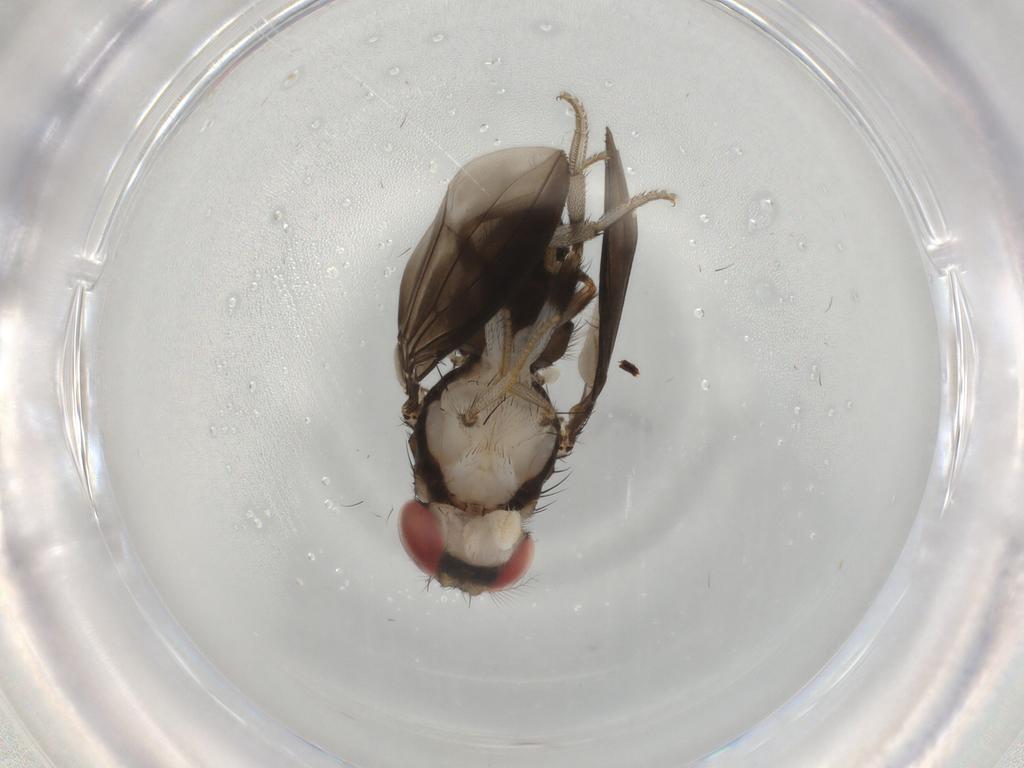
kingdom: Animalia
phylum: Arthropoda
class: Insecta
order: Diptera
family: Drosophilidae
